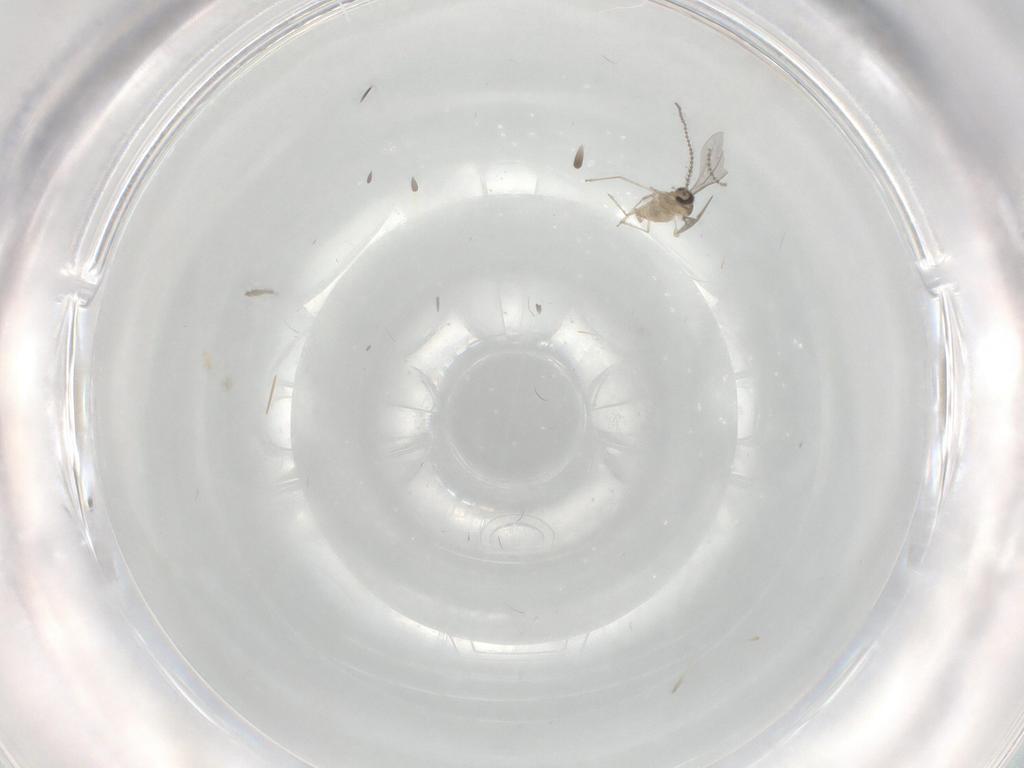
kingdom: Animalia
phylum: Arthropoda
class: Insecta
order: Diptera
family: Cecidomyiidae
